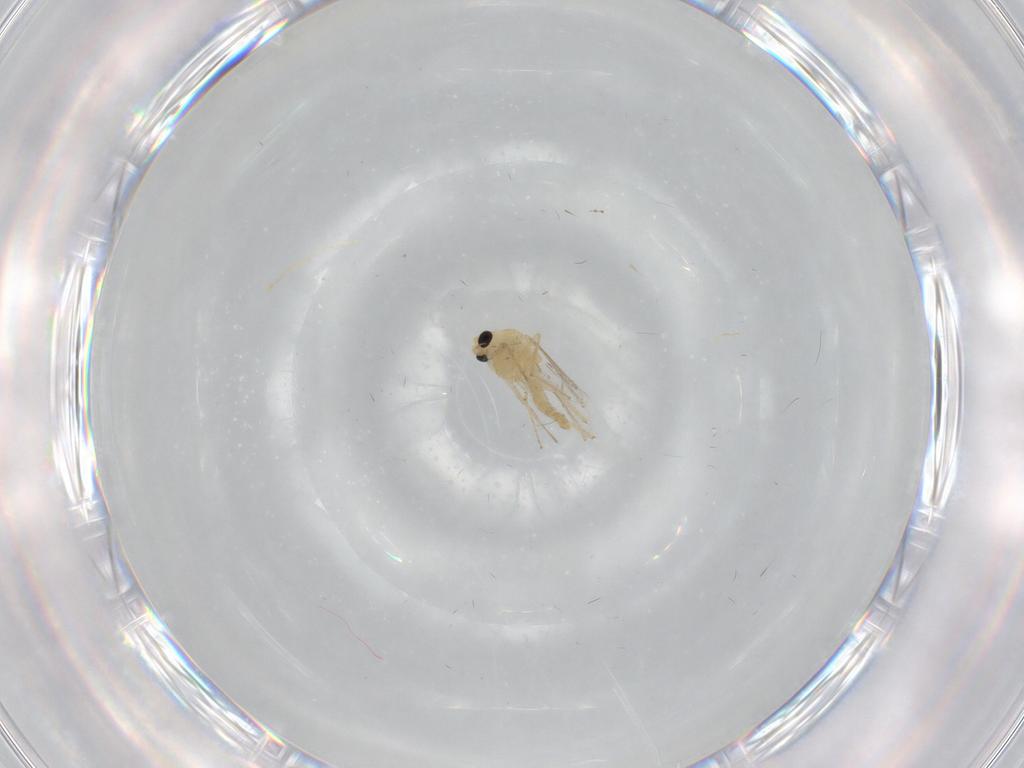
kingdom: Animalia
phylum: Arthropoda
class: Insecta
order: Diptera
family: Chironomidae
